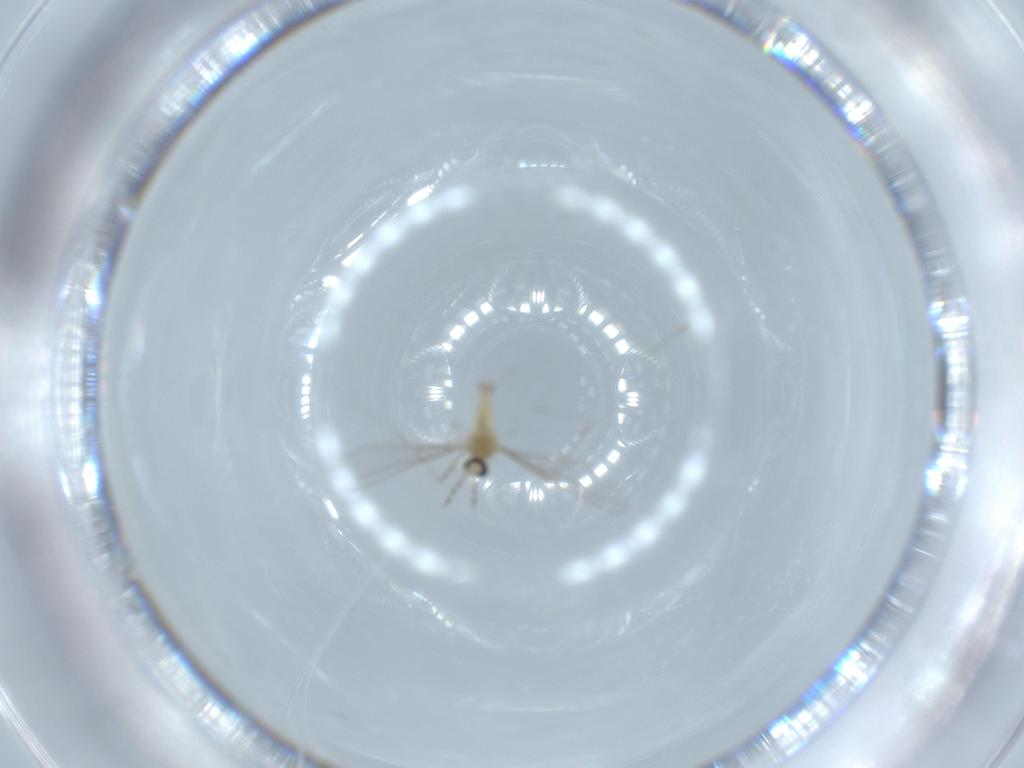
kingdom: Animalia
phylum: Arthropoda
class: Insecta
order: Diptera
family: Cecidomyiidae
